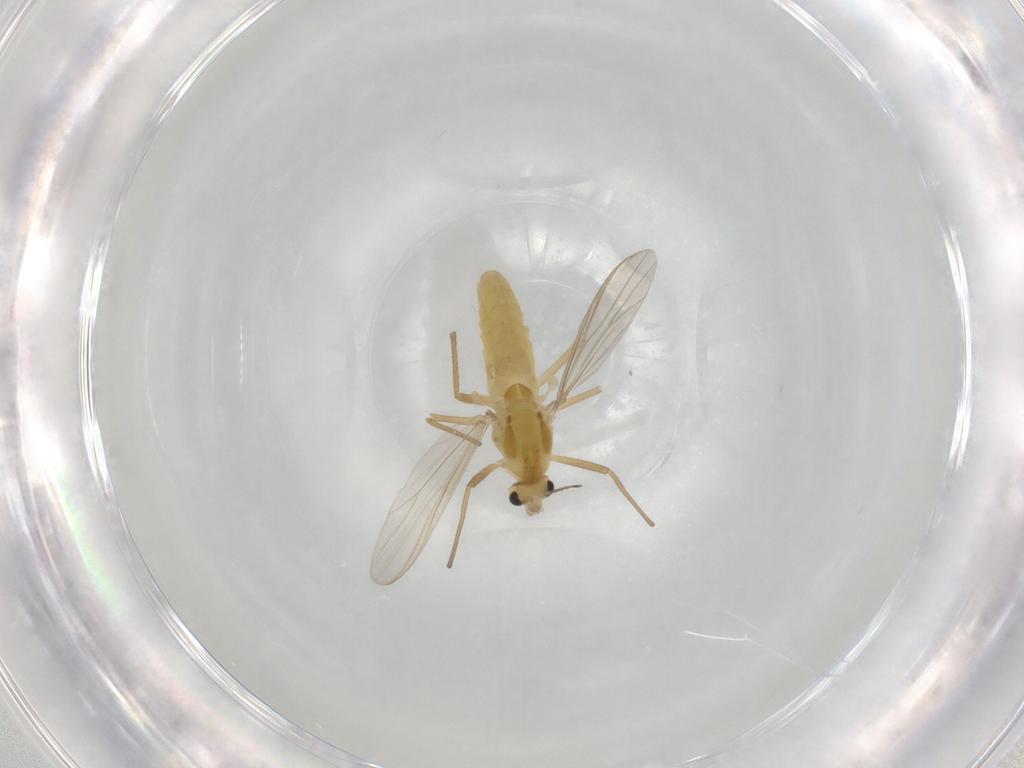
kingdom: Animalia
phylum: Arthropoda
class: Insecta
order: Diptera
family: Chironomidae
